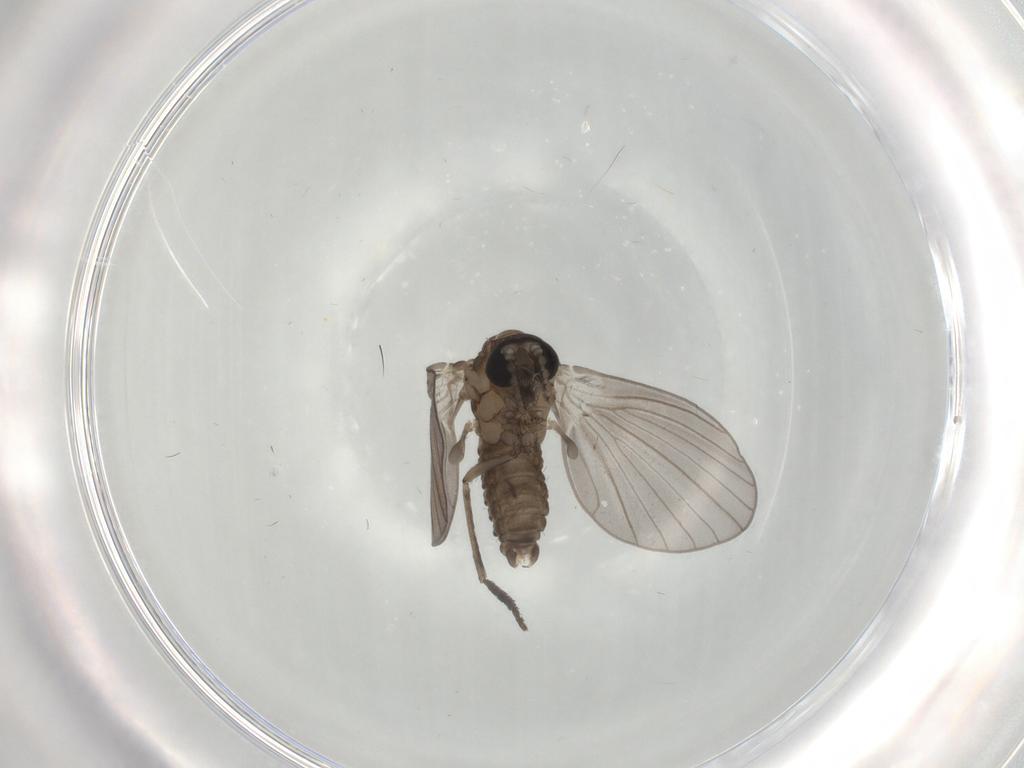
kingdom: Animalia
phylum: Arthropoda
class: Insecta
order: Diptera
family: Psychodidae
